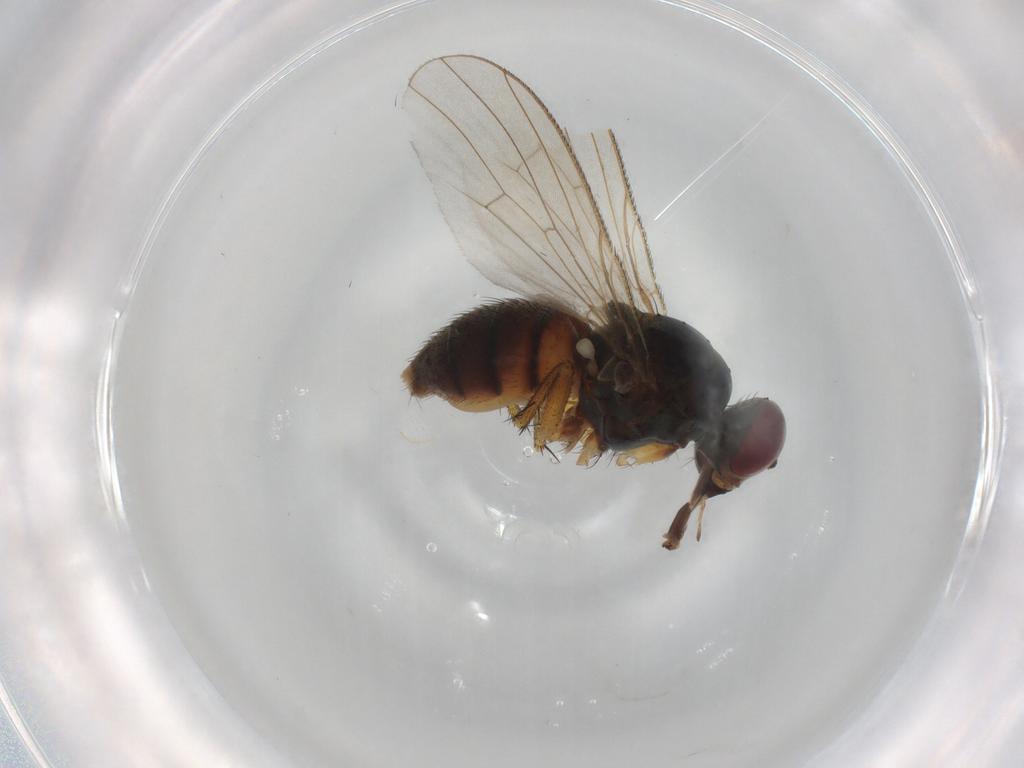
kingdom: Animalia
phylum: Arthropoda
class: Insecta
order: Diptera
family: Muscidae
